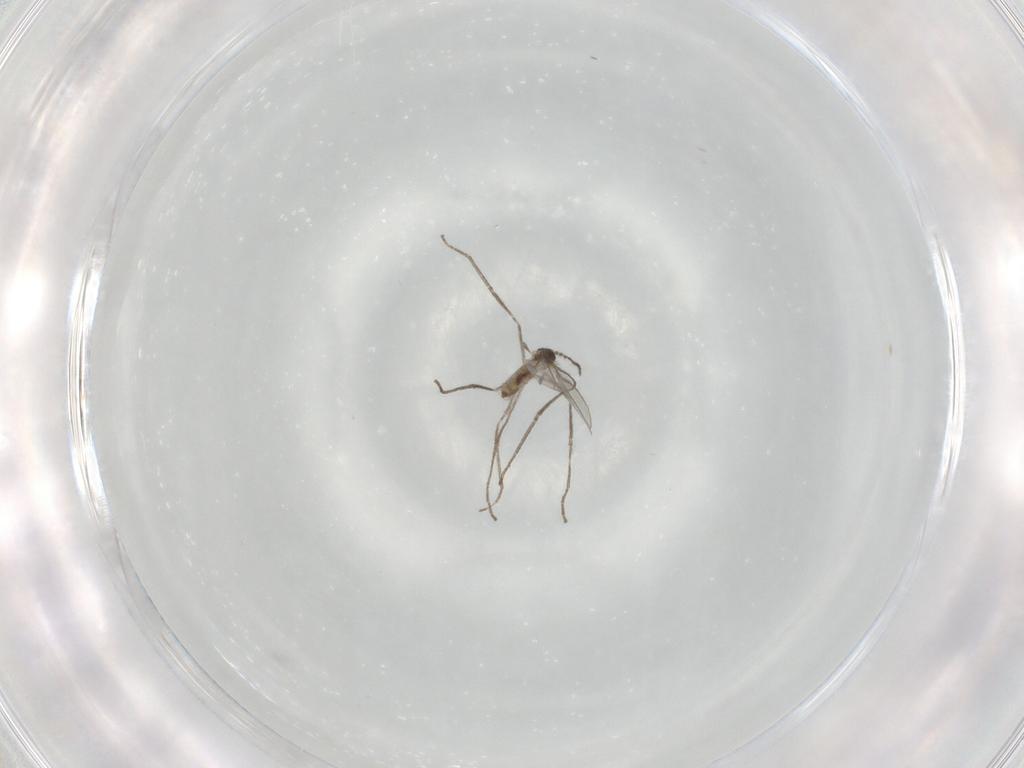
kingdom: Animalia
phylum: Arthropoda
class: Insecta
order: Diptera
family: Cecidomyiidae
